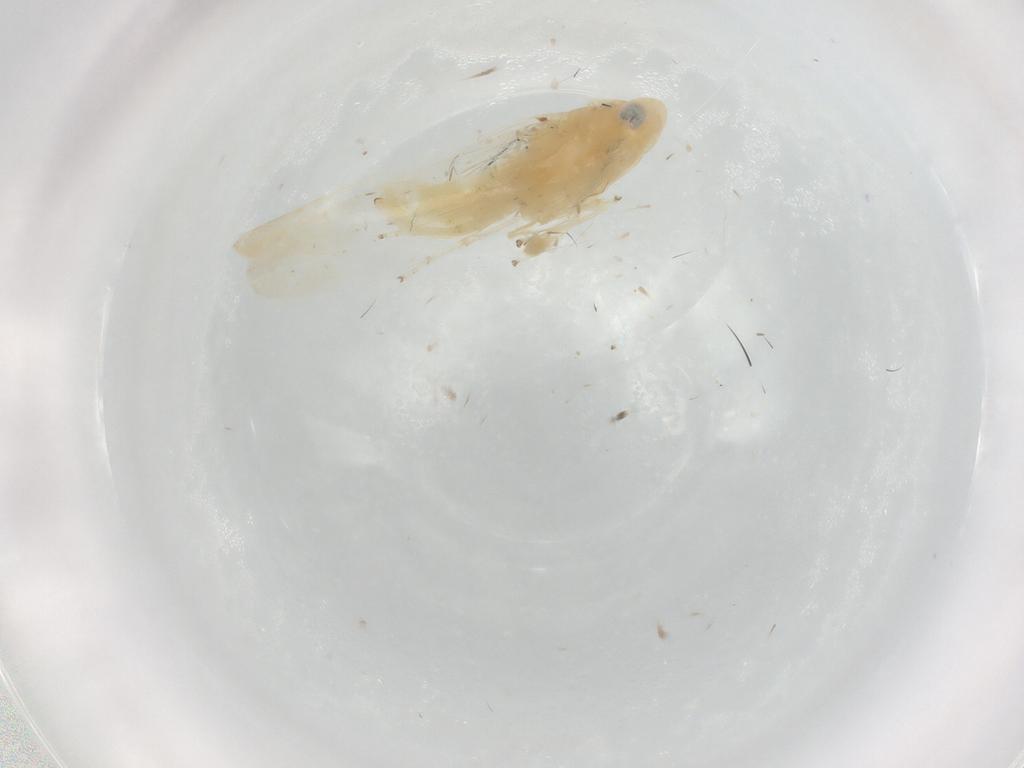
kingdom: Animalia
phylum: Arthropoda
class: Insecta
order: Hemiptera
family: Cicadellidae
